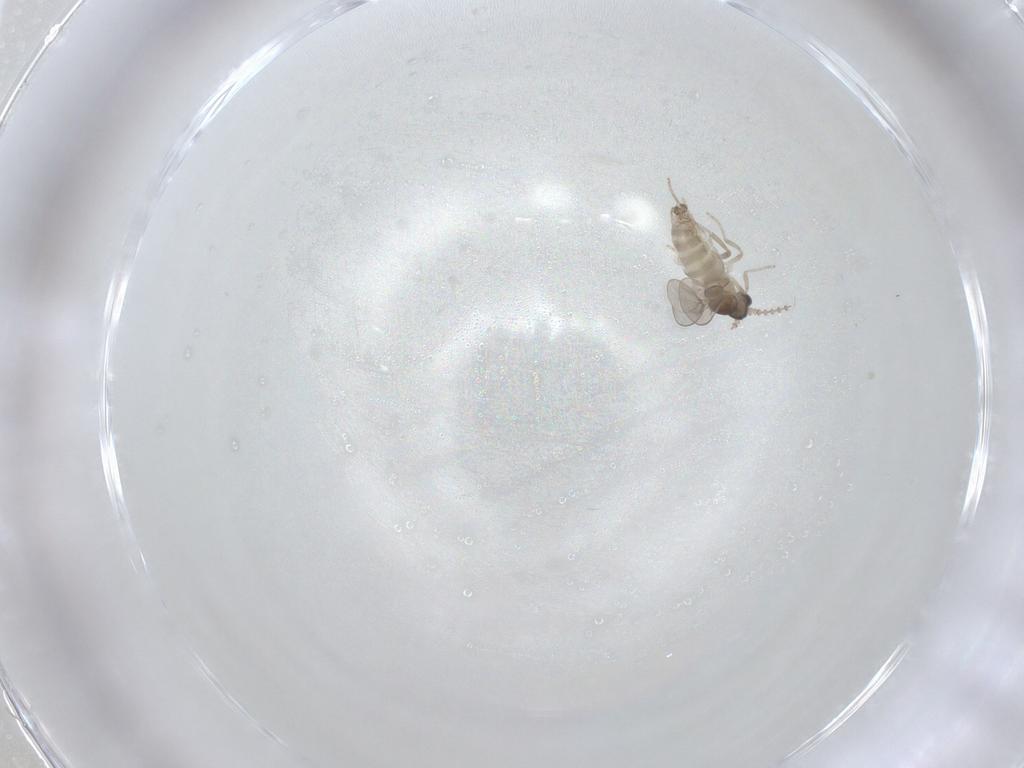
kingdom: Animalia
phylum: Arthropoda
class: Insecta
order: Diptera
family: Cecidomyiidae
